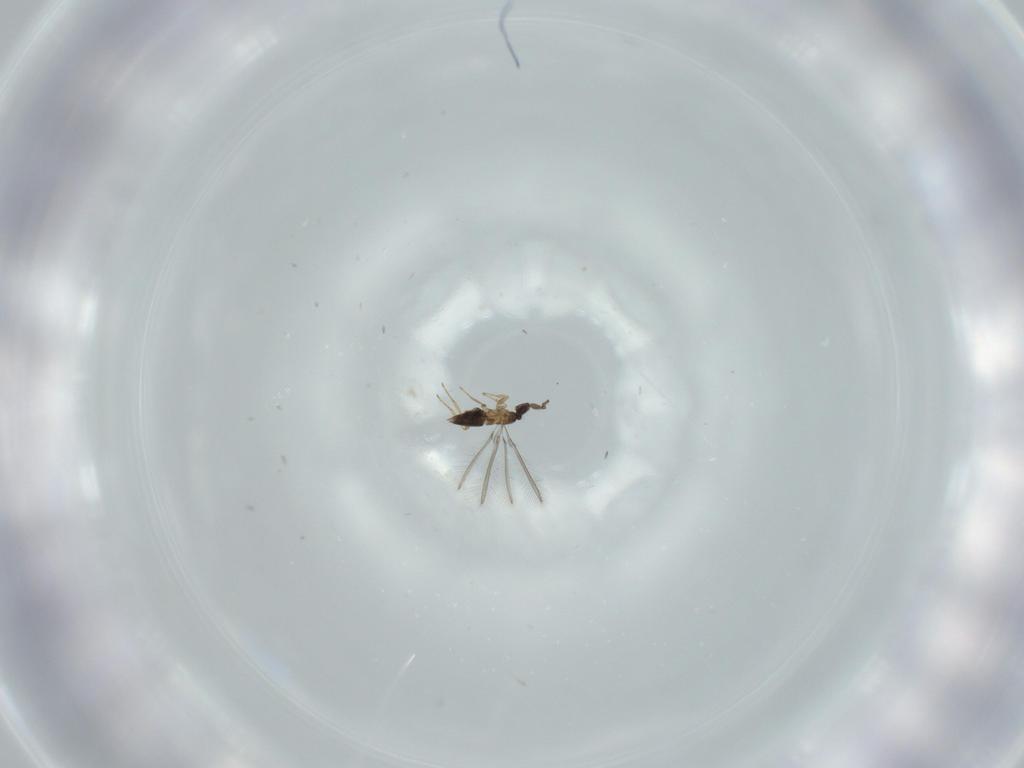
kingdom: Animalia
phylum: Arthropoda
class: Insecta
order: Hymenoptera
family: Mymaridae
